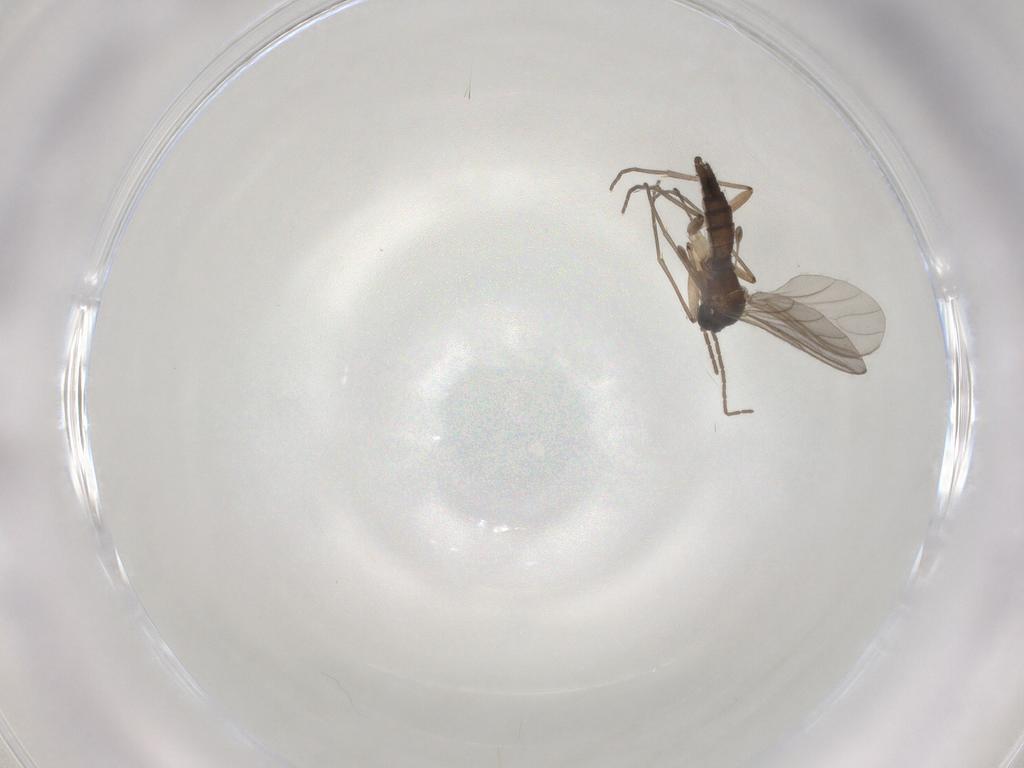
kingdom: Animalia
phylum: Arthropoda
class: Insecta
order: Diptera
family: Sciaridae
